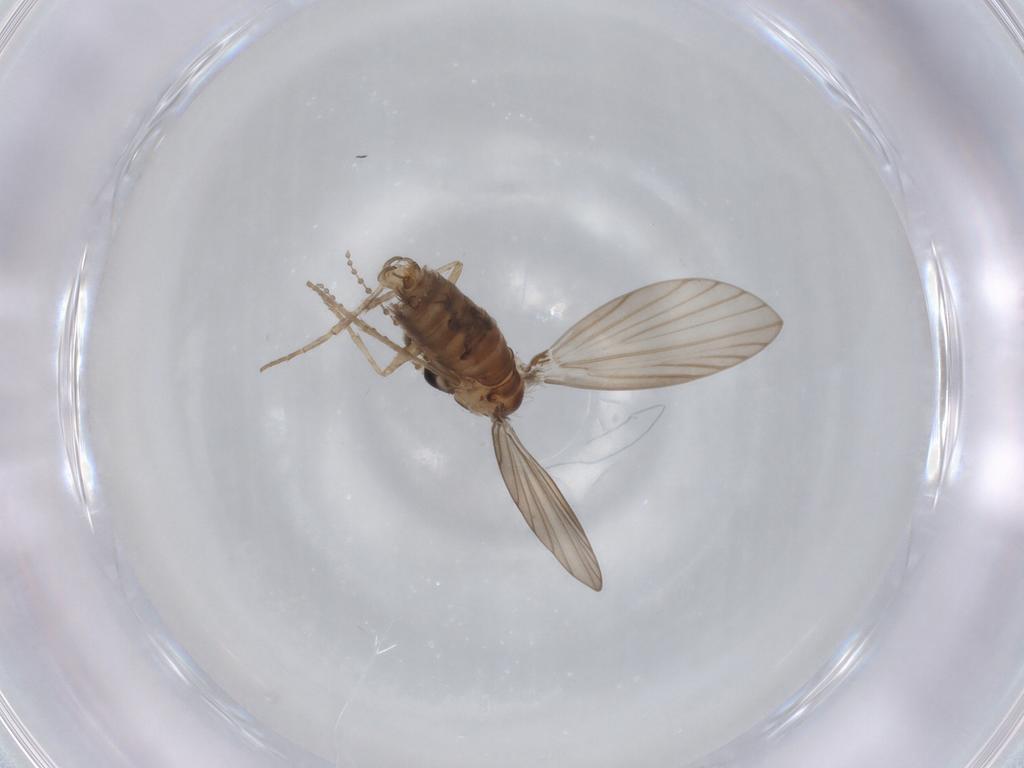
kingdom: Animalia
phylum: Arthropoda
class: Insecta
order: Diptera
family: Psychodidae
